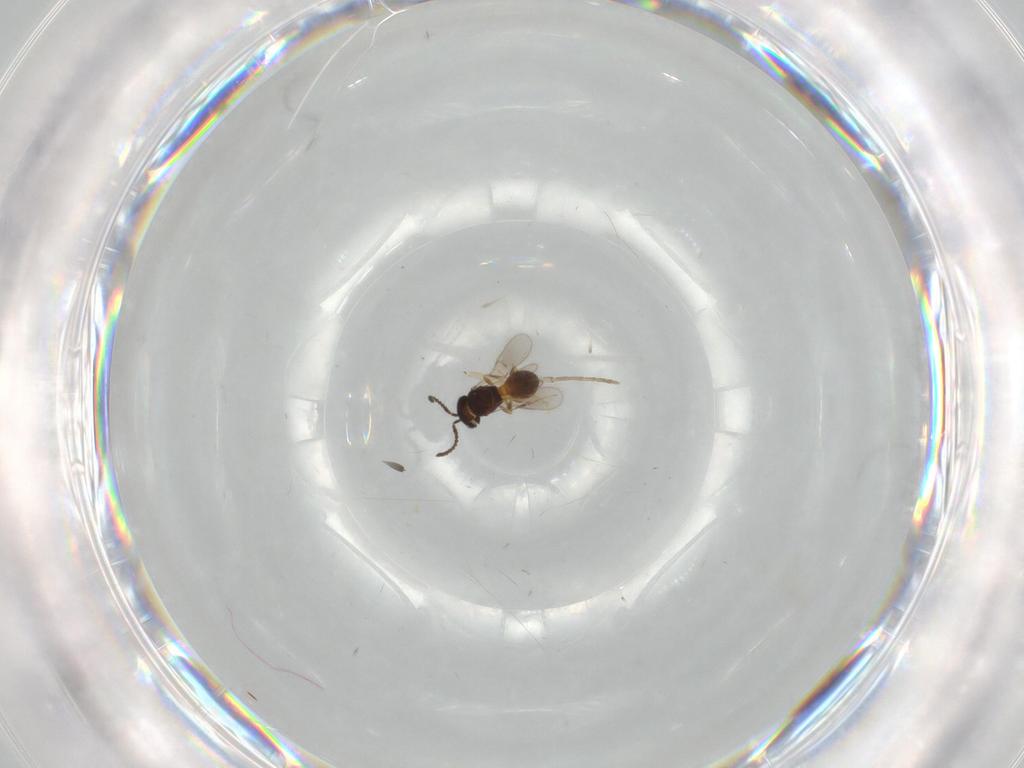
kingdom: Animalia
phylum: Arthropoda
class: Insecta
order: Hymenoptera
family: Scelionidae
